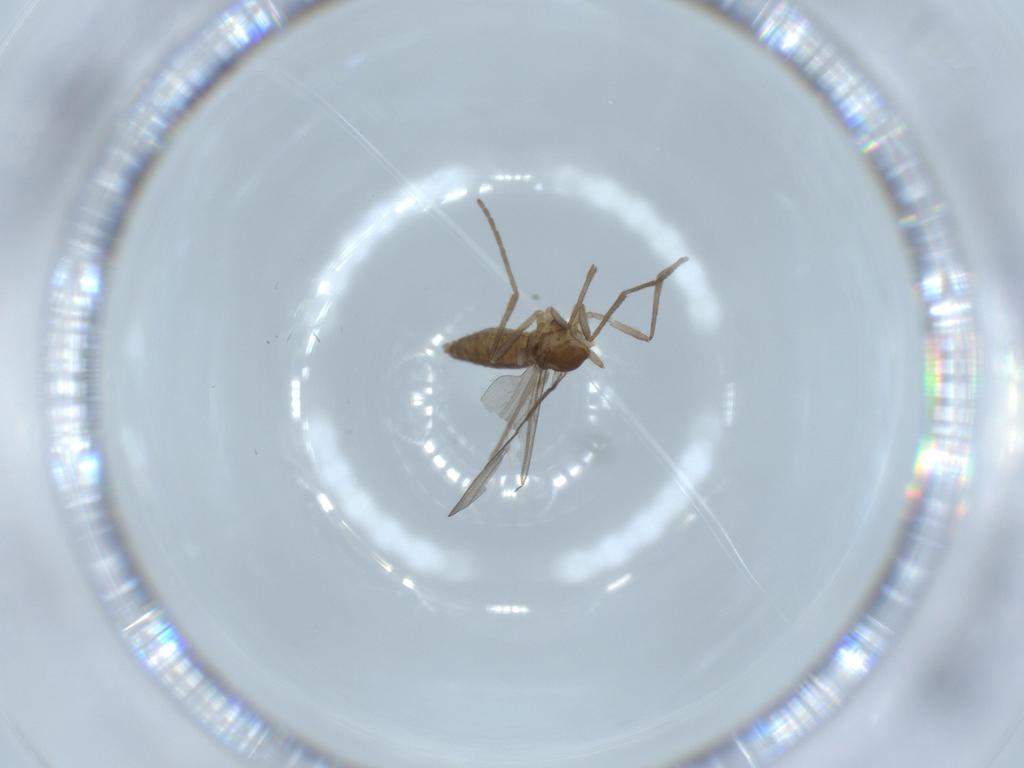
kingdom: Animalia
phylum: Arthropoda
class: Insecta
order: Diptera
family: Cecidomyiidae
